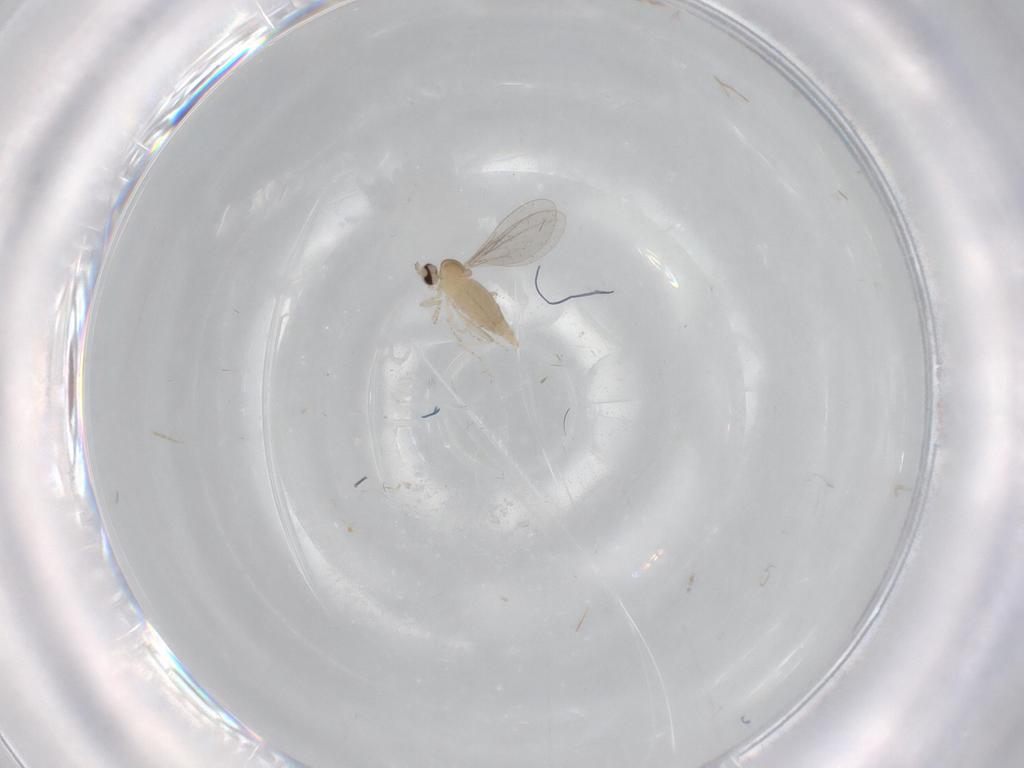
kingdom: Animalia
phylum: Arthropoda
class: Insecta
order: Diptera
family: Cecidomyiidae
